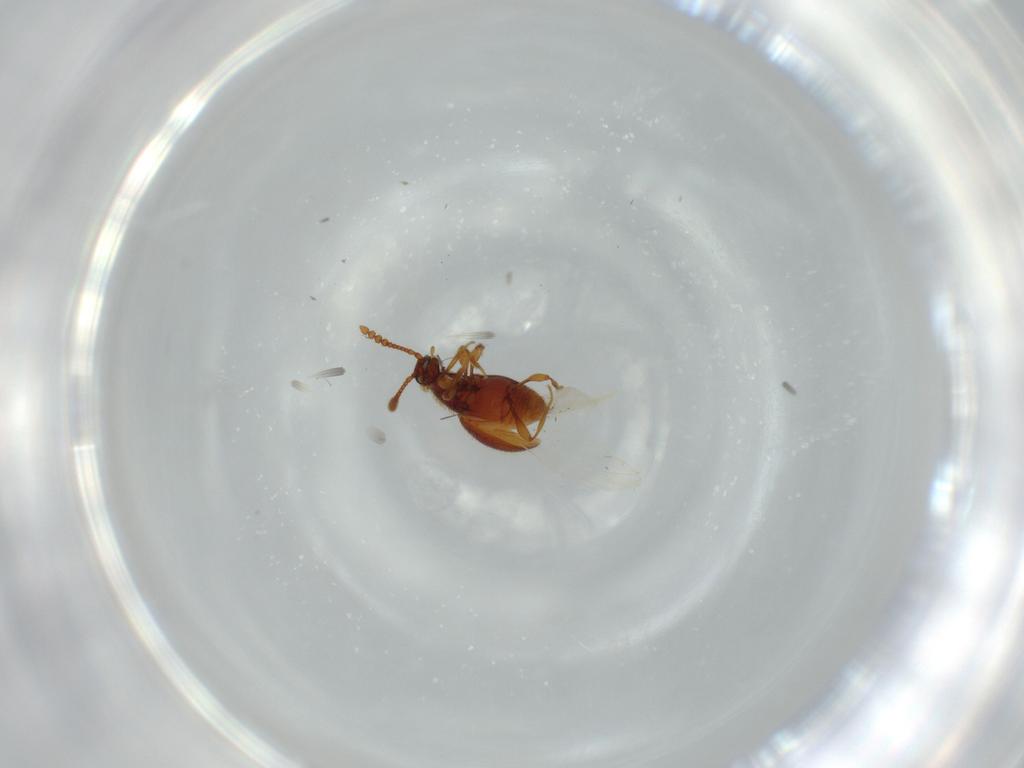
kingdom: Animalia
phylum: Arthropoda
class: Insecta
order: Coleoptera
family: Staphylinidae
